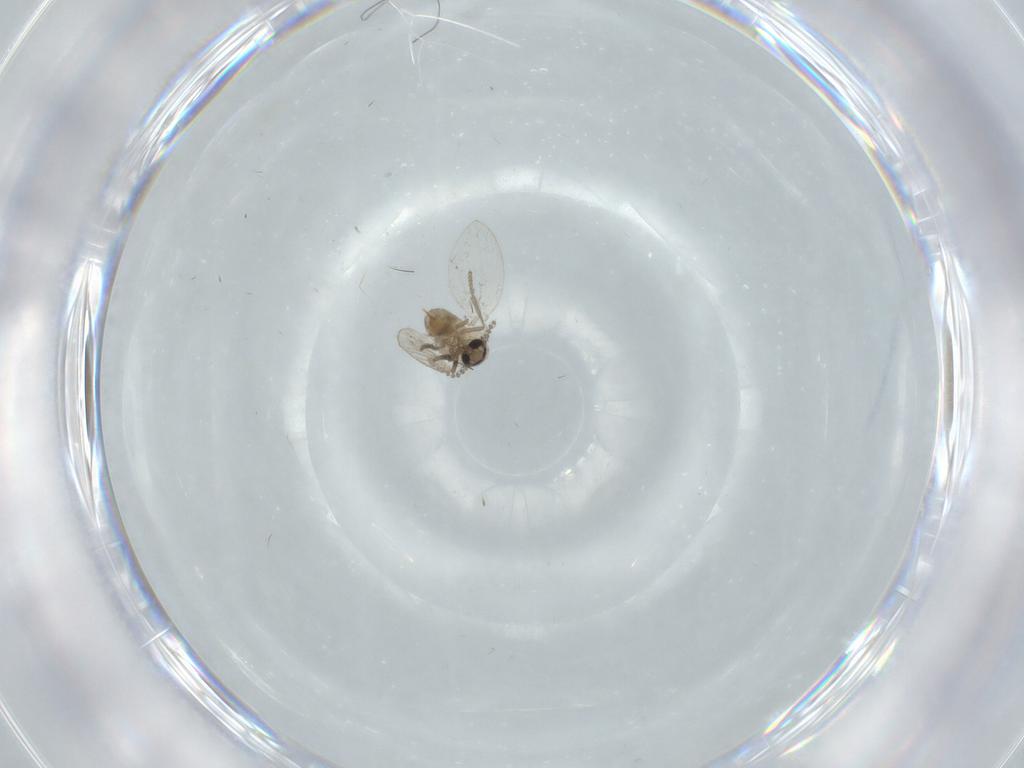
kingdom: Animalia
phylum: Arthropoda
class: Insecta
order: Diptera
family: Psychodidae
